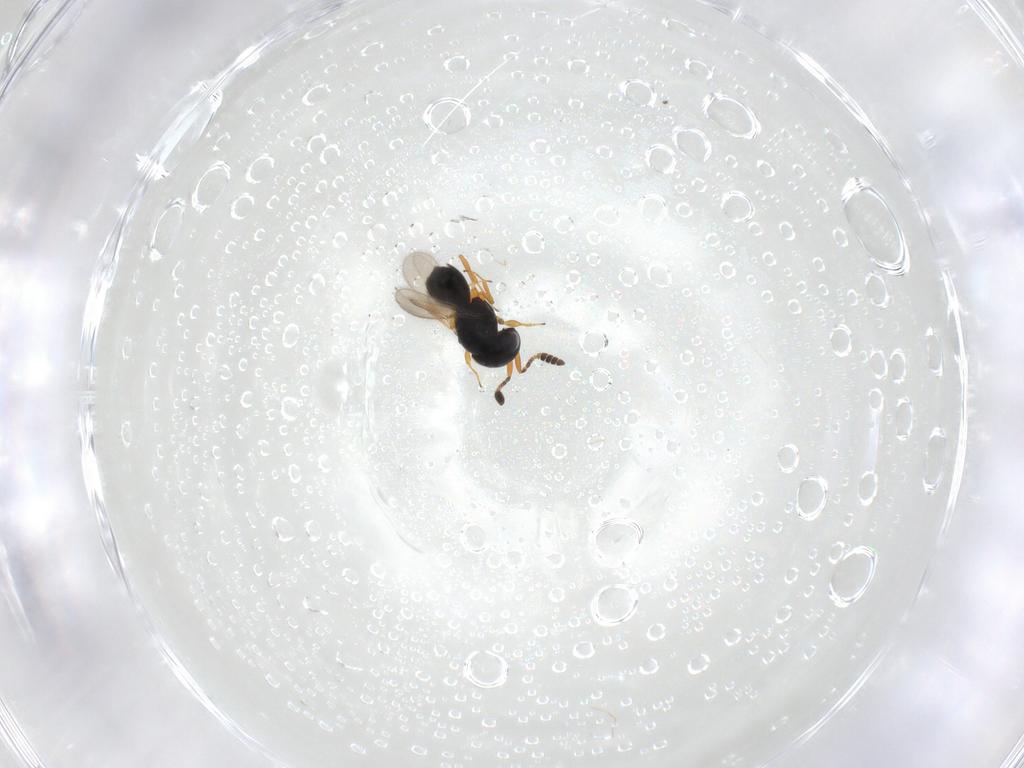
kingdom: Animalia
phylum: Arthropoda
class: Insecta
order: Hymenoptera
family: Scelionidae
